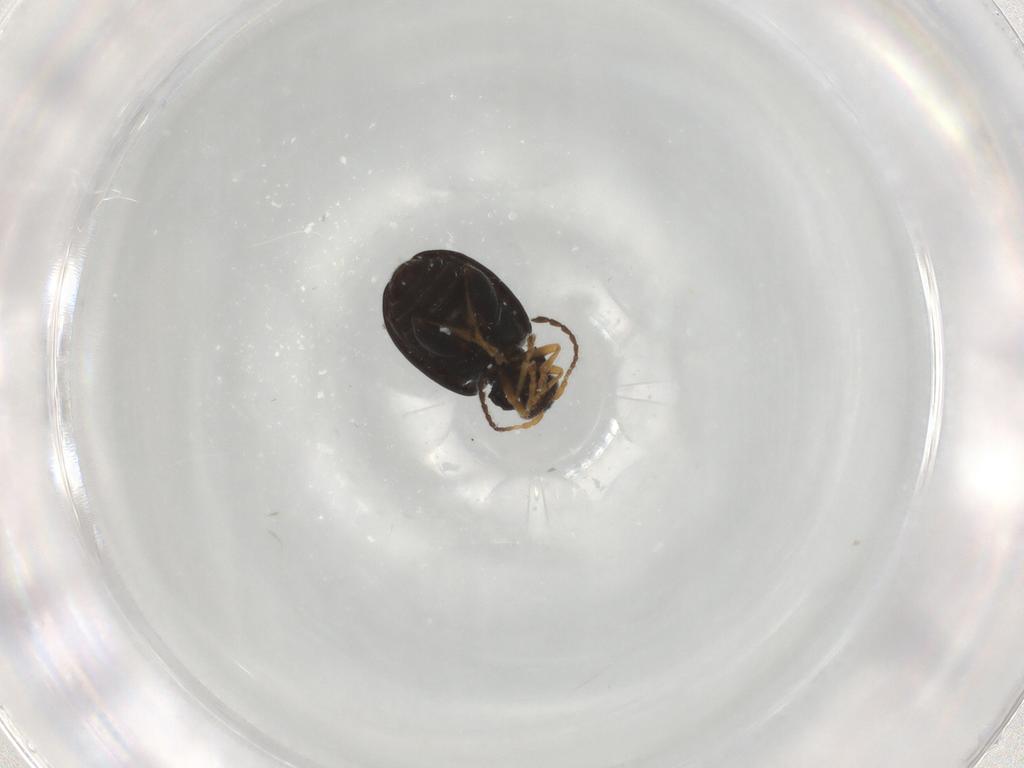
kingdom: Animalia
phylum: Arthropoda
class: Insecta
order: Coleoptera
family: Chrysomelidae
